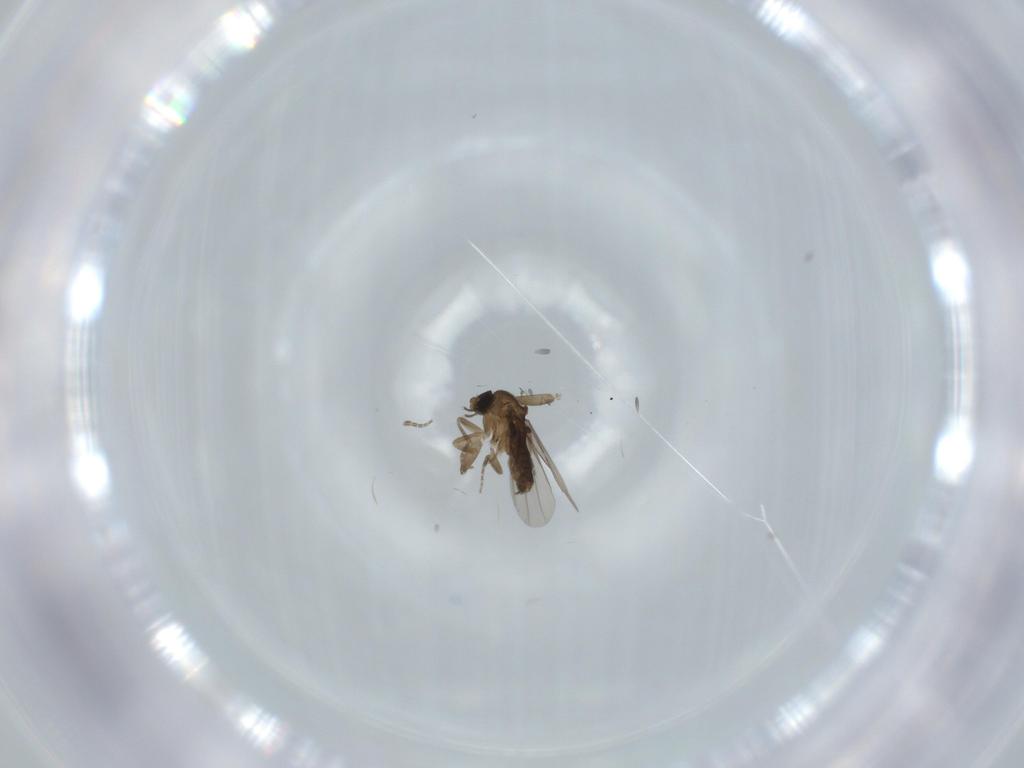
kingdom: Animalia
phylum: Arthropoda
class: Insecta
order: Diptera
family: Phoridae
